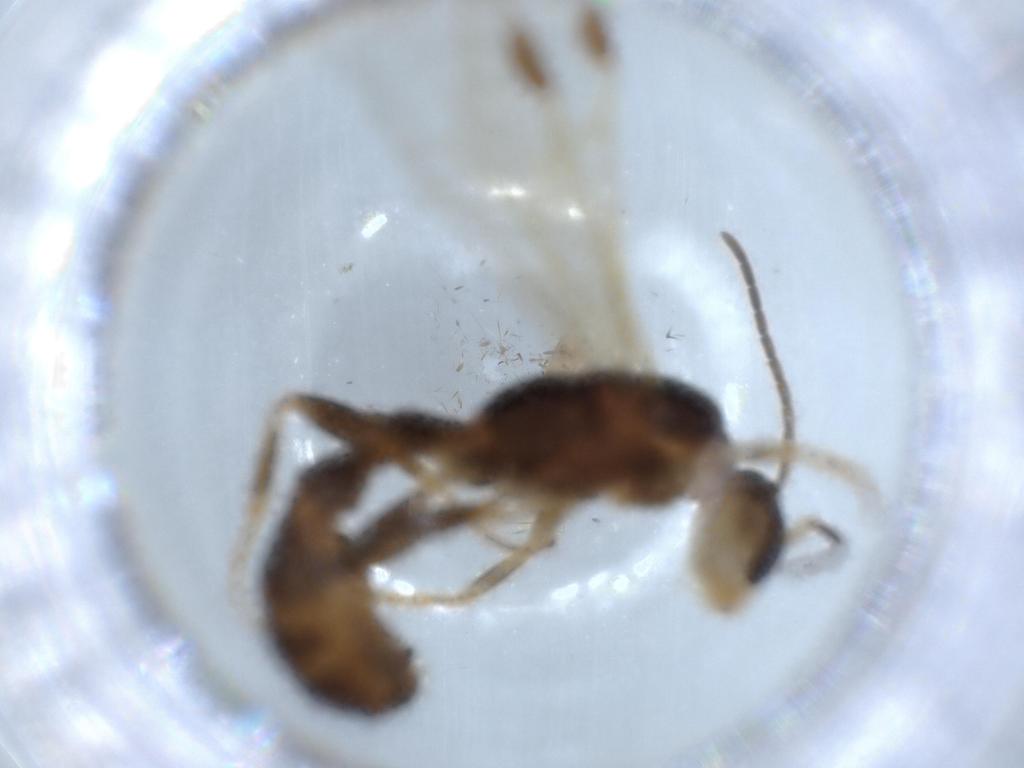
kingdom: Animalia
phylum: Arthropoda
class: Insecta
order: Hymenoptera
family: Formicidae
